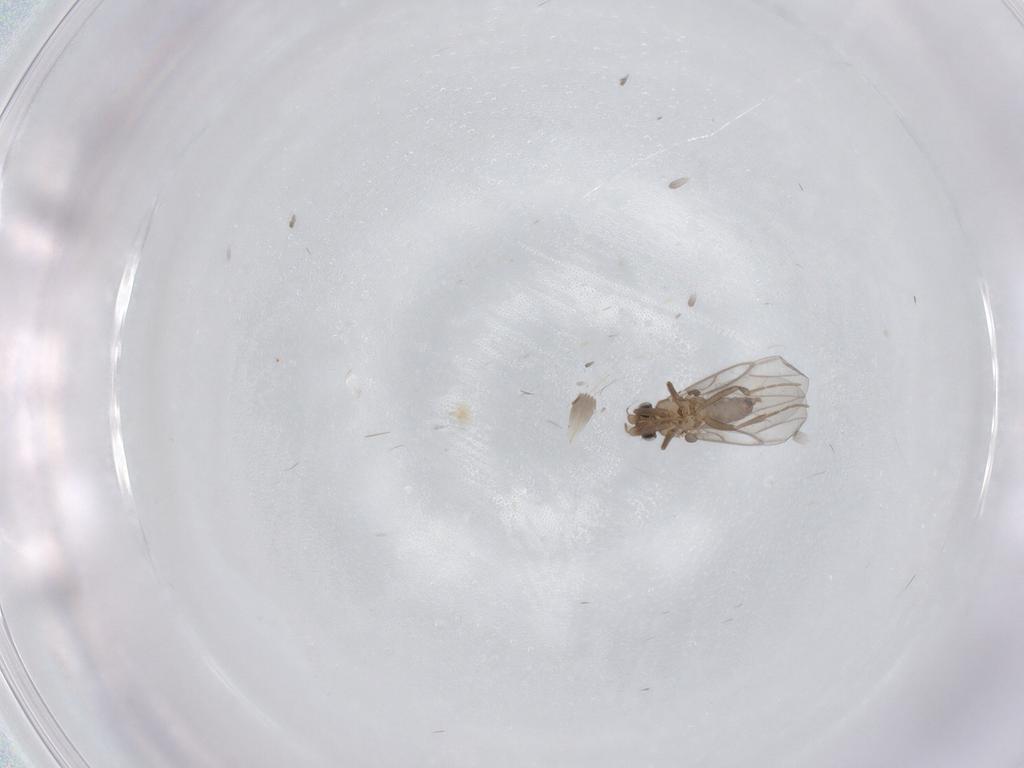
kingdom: Animalia
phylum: Arthropoda
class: Insecta
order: Diptera
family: Cecidomyiidae
